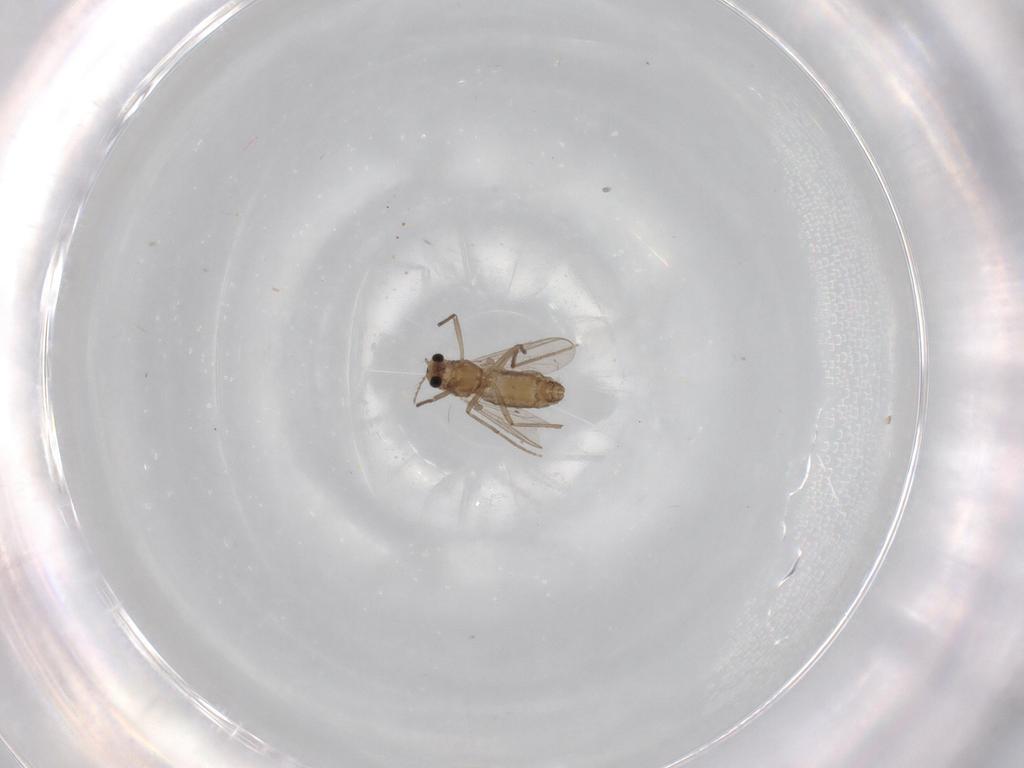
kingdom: Animalia
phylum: Arthropoda
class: Insecta
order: Diptera
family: Chironomidae
